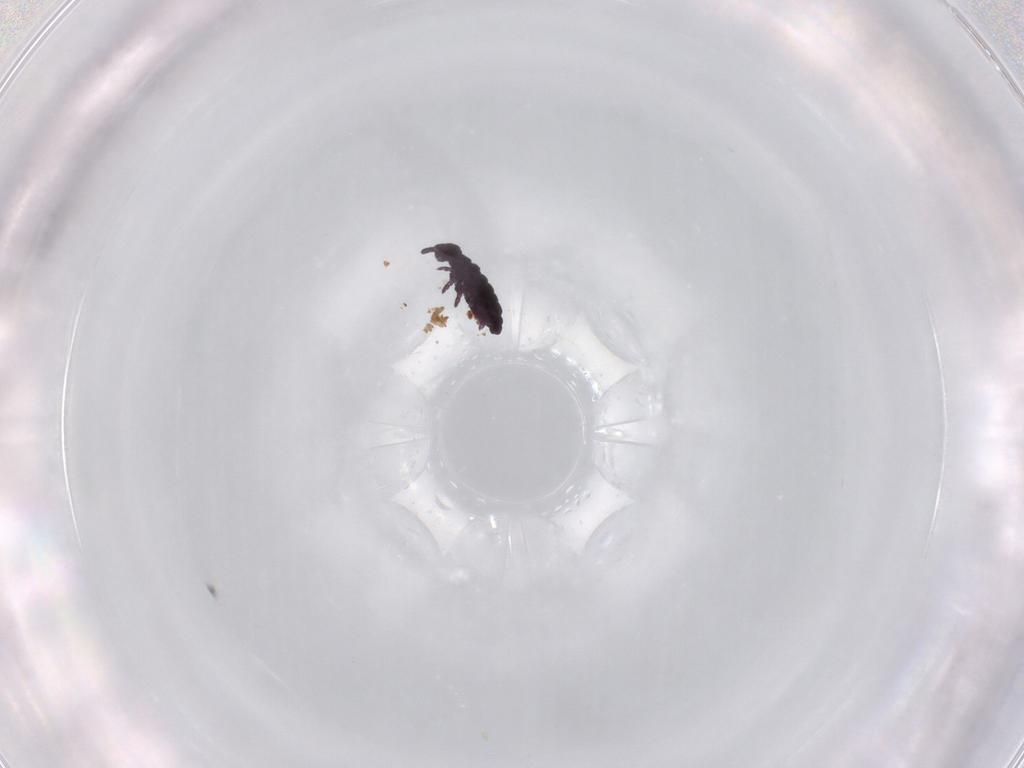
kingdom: Animalia
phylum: Arthropoda
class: Collembola
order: Poduromorpha
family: Hypogastruridae
